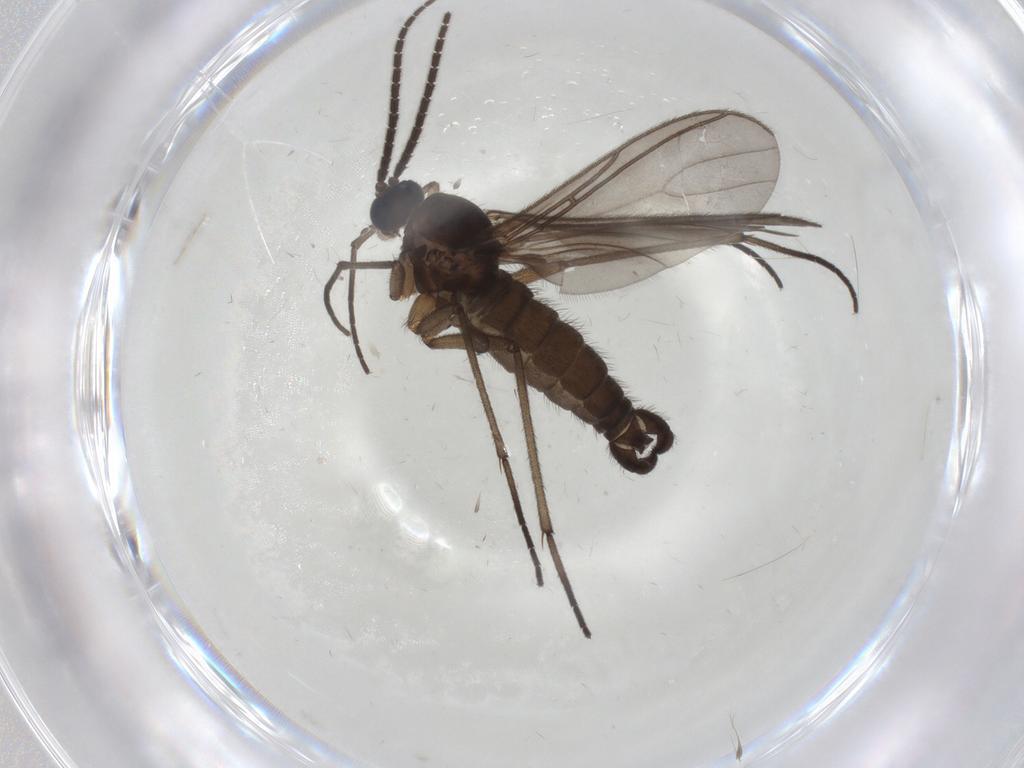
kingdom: Animalia
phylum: Arthropoda
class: Insecta
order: Diptera
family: Sciaridae
